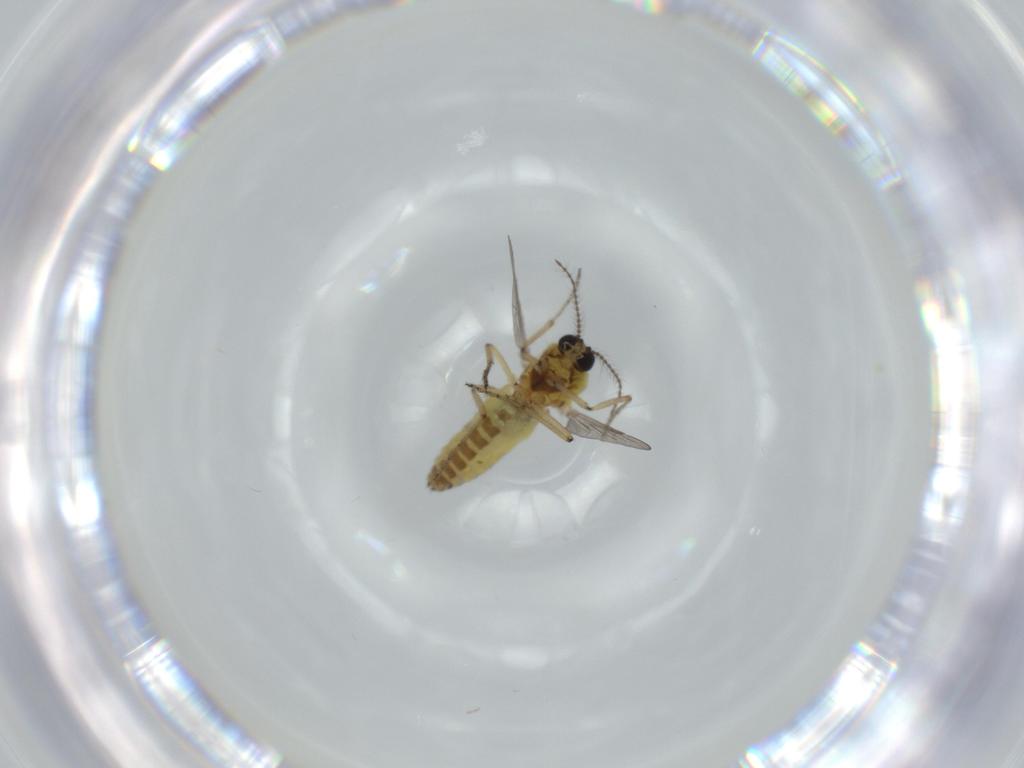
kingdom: Animalia
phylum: Arthropoda
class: Insecta
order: Diptera
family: Ceratopogonidae
